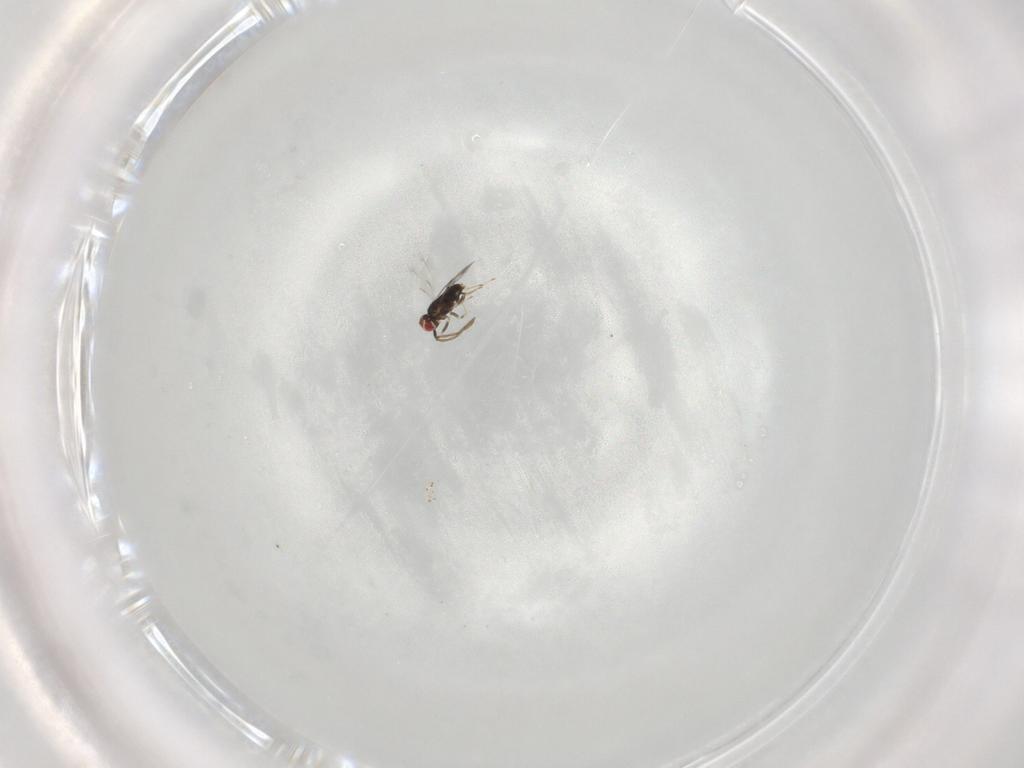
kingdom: Animalia
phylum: Arthropoda
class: Insecta
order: Hymenoptera
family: Azotidae
